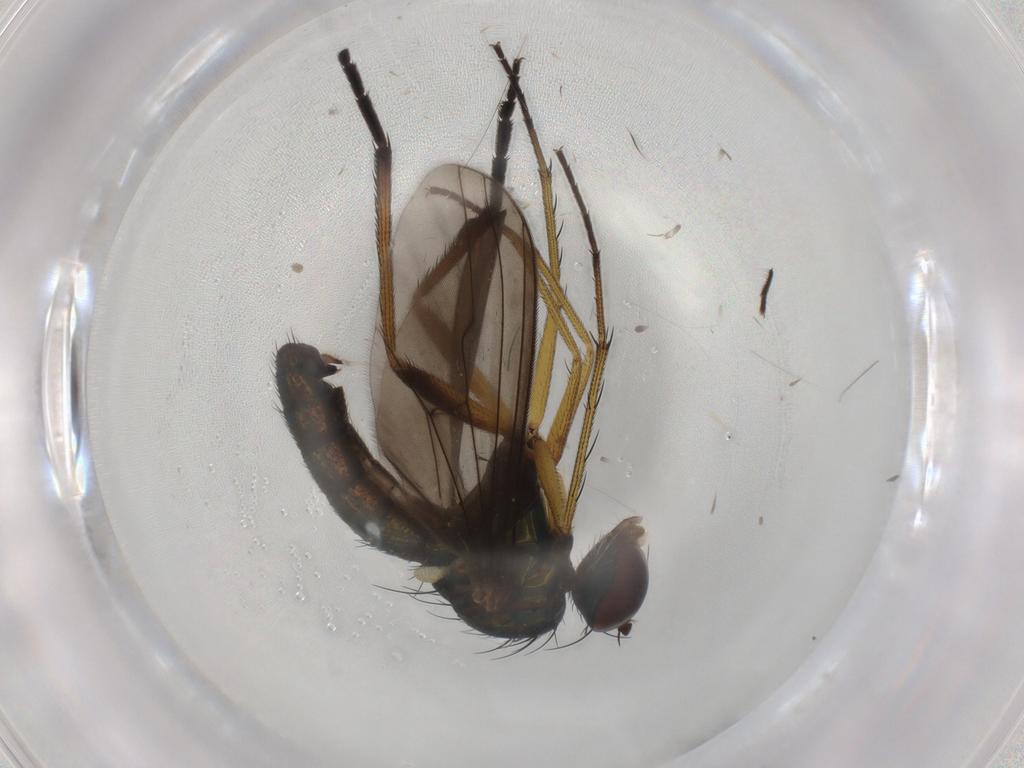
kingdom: Animalia
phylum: Arthropoda
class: Insecta
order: Diptera
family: Dolichopodidae
